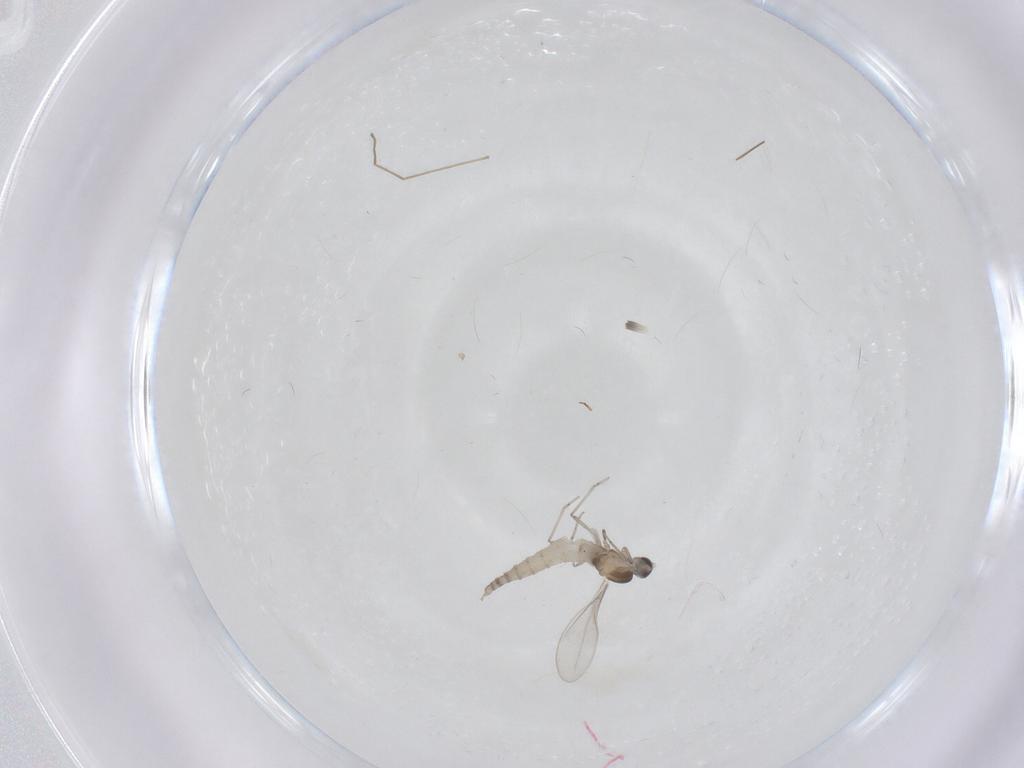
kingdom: Animalia
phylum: Arthropoda
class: Insecta
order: Diptera
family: Cecidomyiidae
